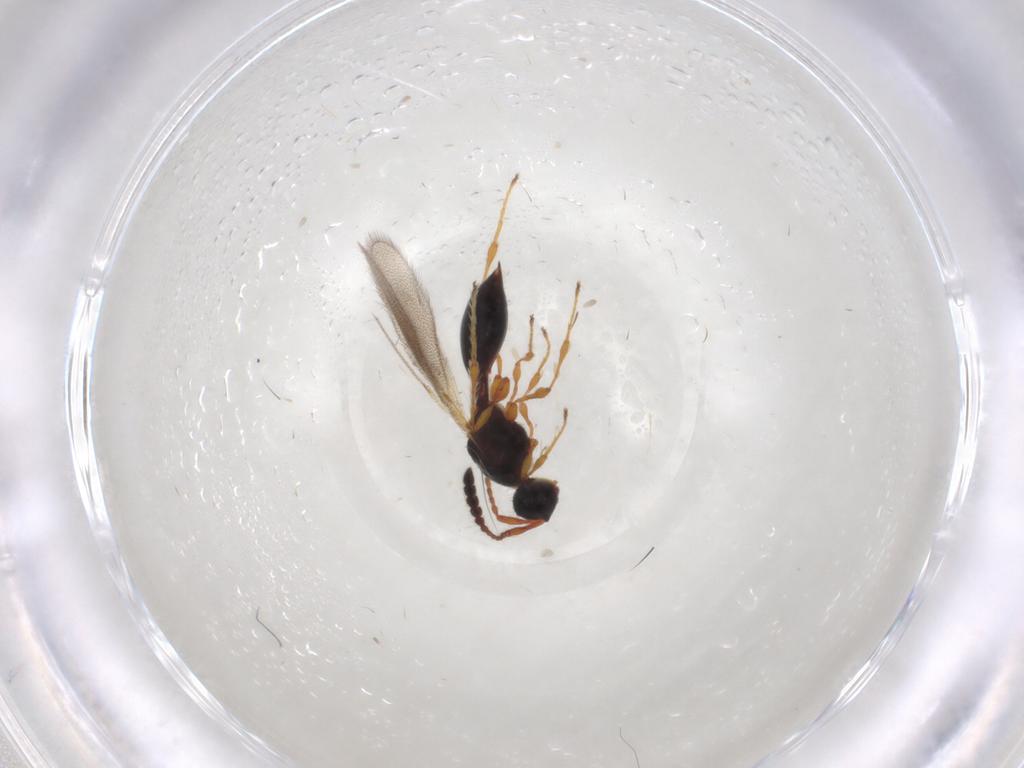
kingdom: Animalia
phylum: Arthropoda
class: Insecta
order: Hymenoptera
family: Diapriidae
